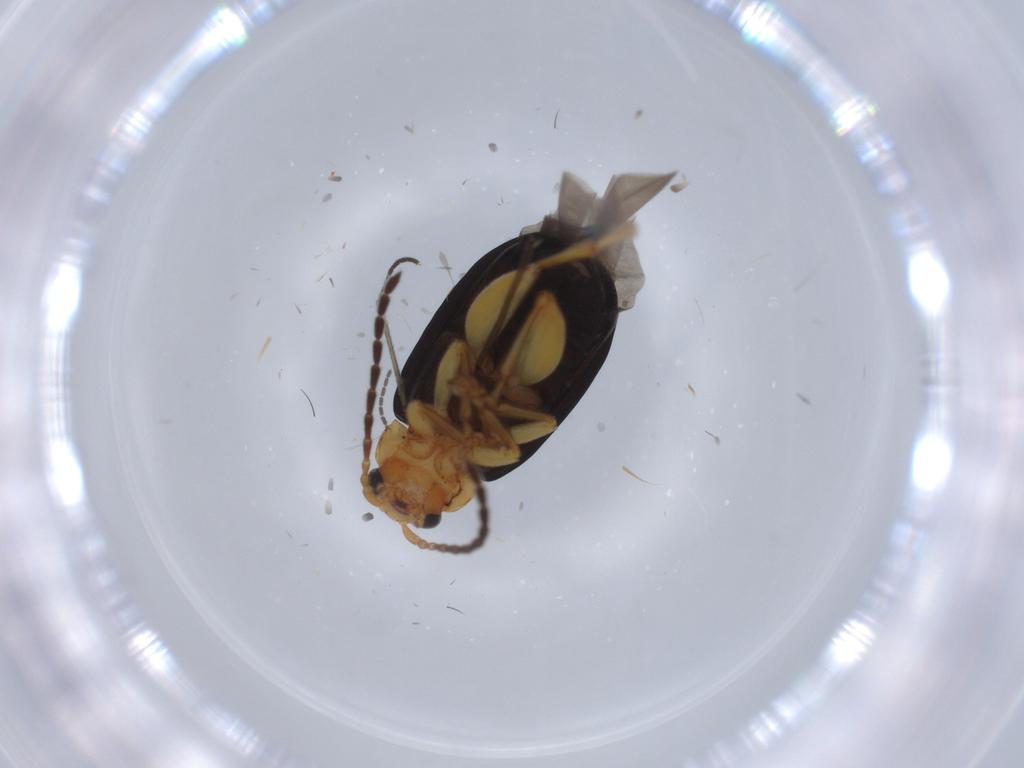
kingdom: Animalia
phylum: Arthropoda
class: Insecta
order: Coleoptera
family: Chrysomelidae
